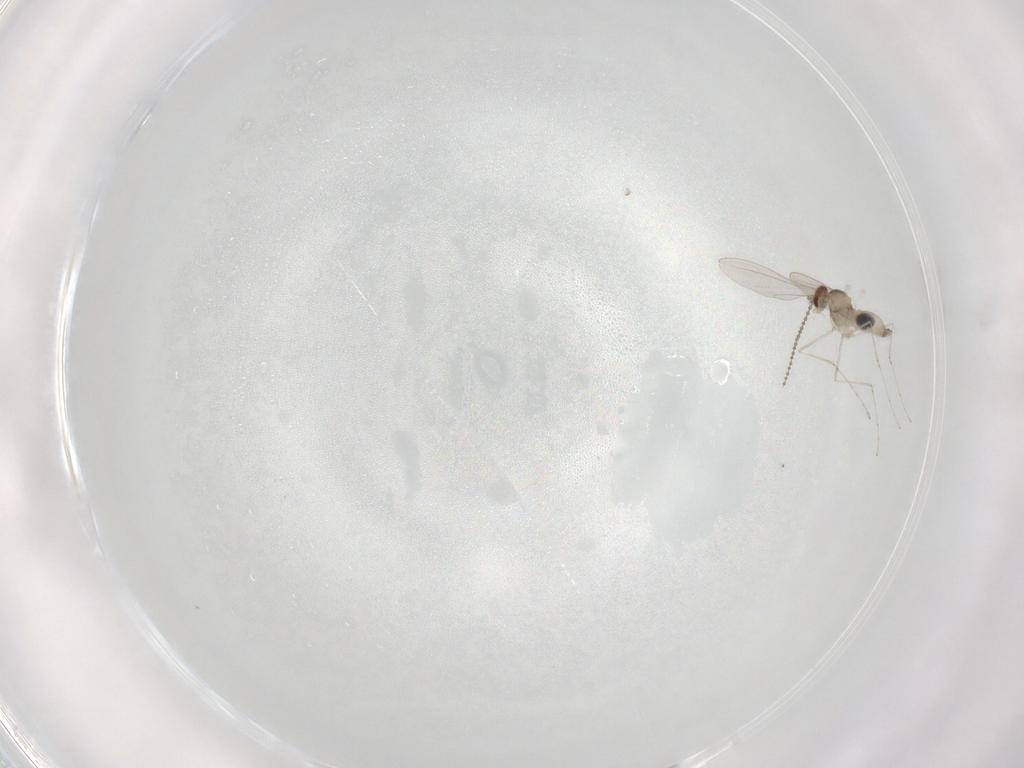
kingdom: Animalia
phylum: Arthropoda
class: Insecta
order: Diptera
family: Cecidomyiidae
